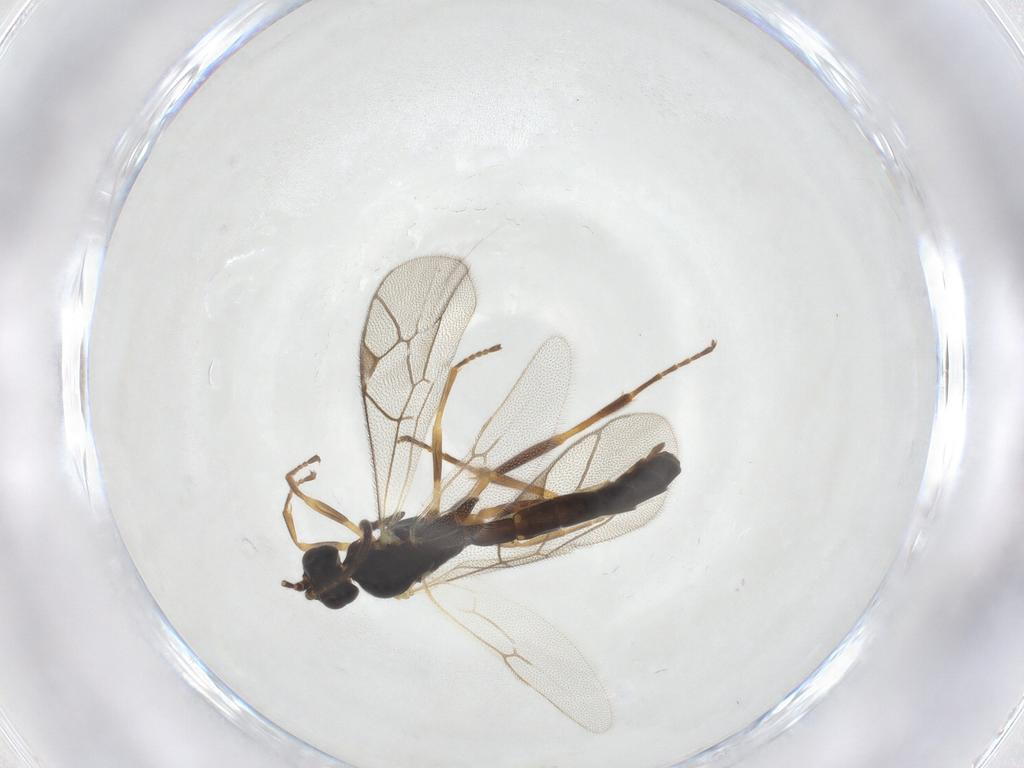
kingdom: Animalia
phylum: Arthropoda
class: Insecta
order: Hymenoptera
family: Ichneumonidae
